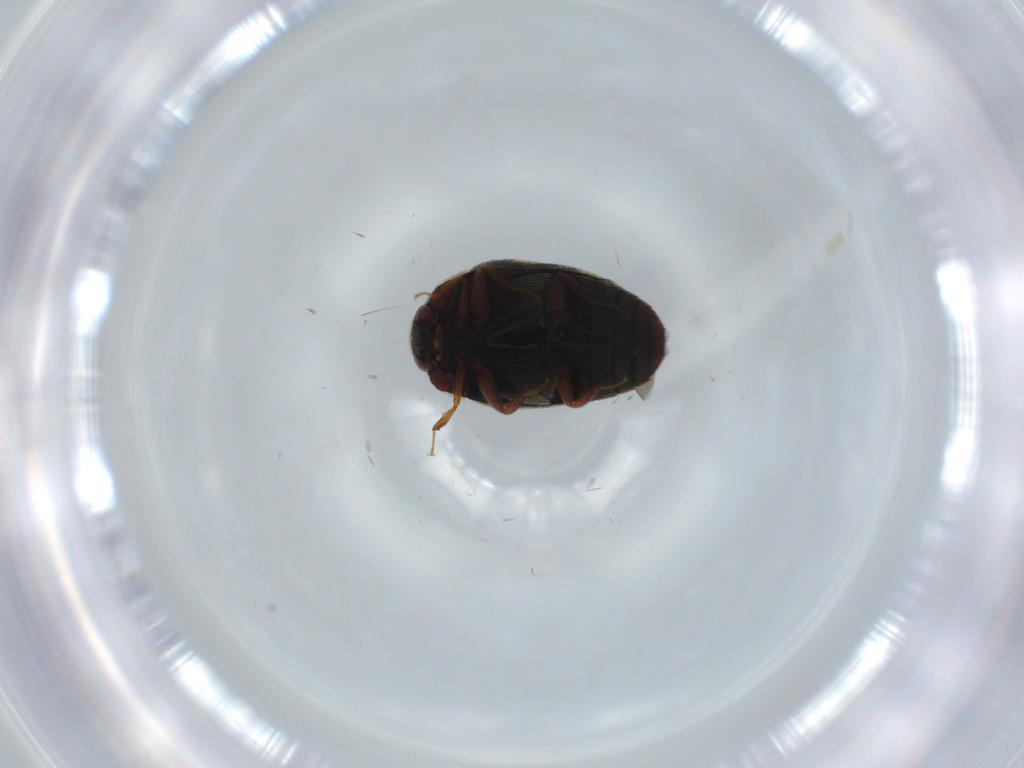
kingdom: Animalia
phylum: Arthropoda
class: Insecta
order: Coleoptera
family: Dermestidae
